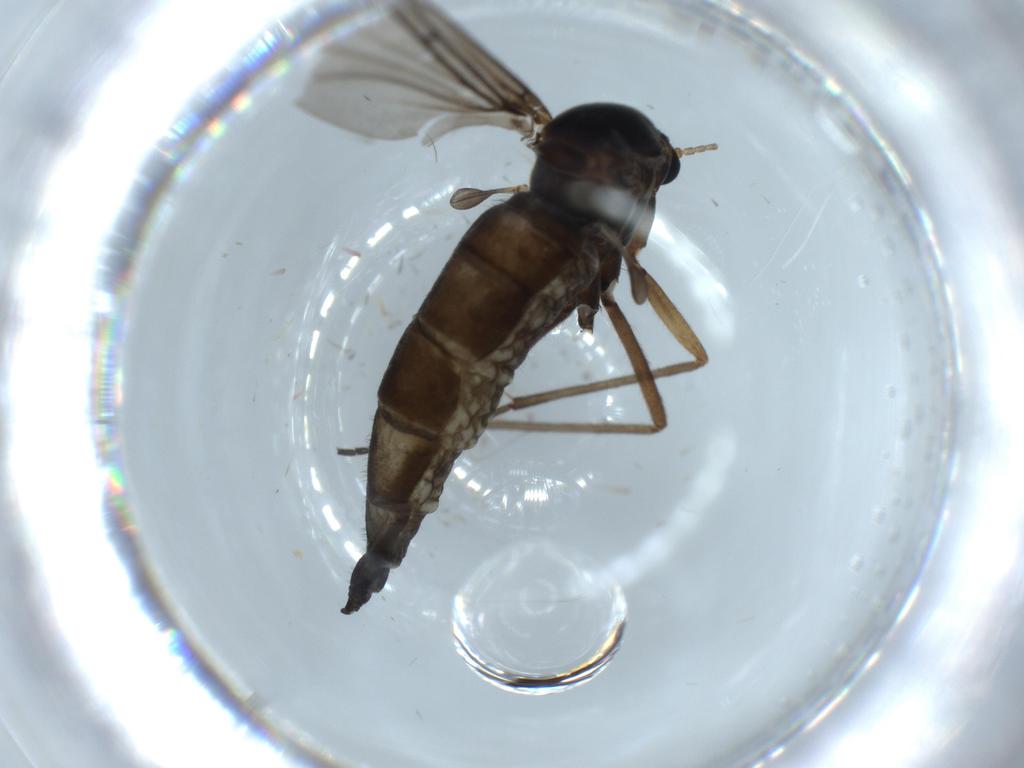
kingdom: Animalia
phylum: Arthropoda
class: Insecta
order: Diptera
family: Sciaridae
